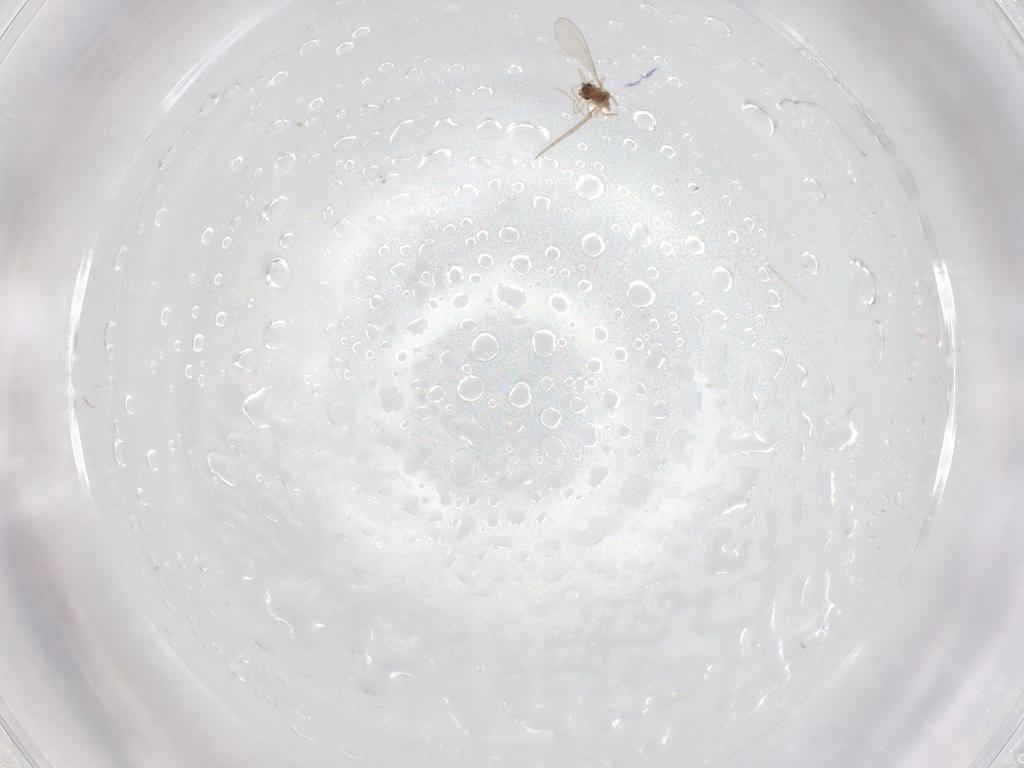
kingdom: Animalia
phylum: Arthropoda
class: Insecta
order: Diptera
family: Cecidomyiidae
